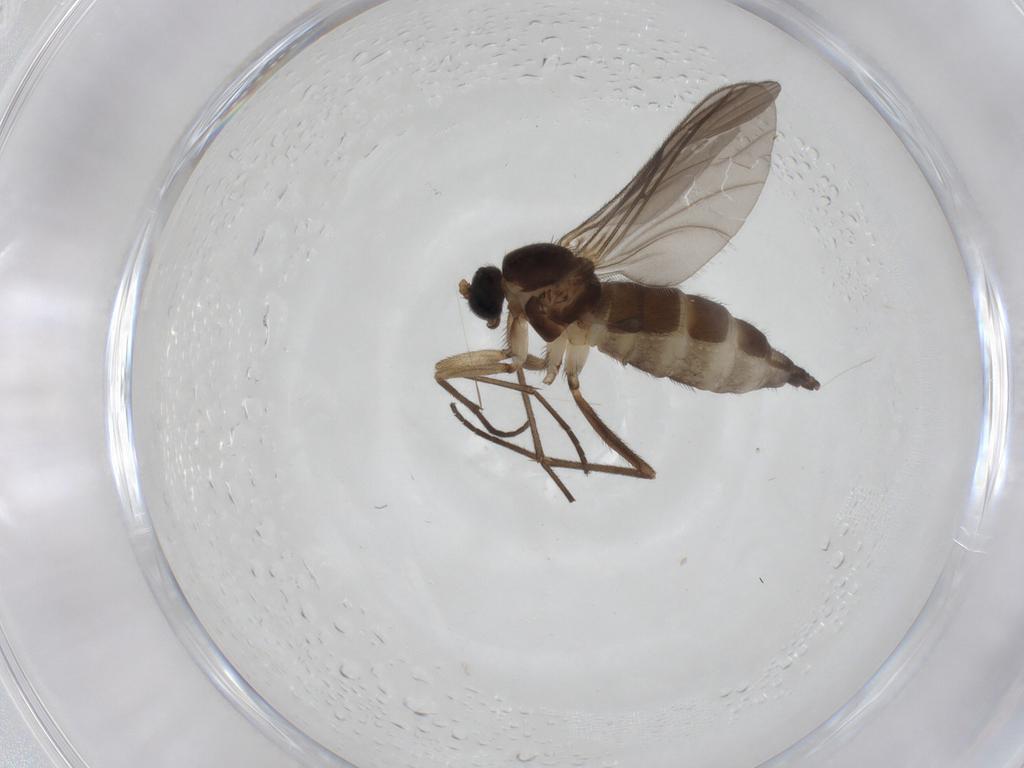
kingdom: Animalia
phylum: Arthropoda
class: Insecta
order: Diptera
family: Sciaridae
